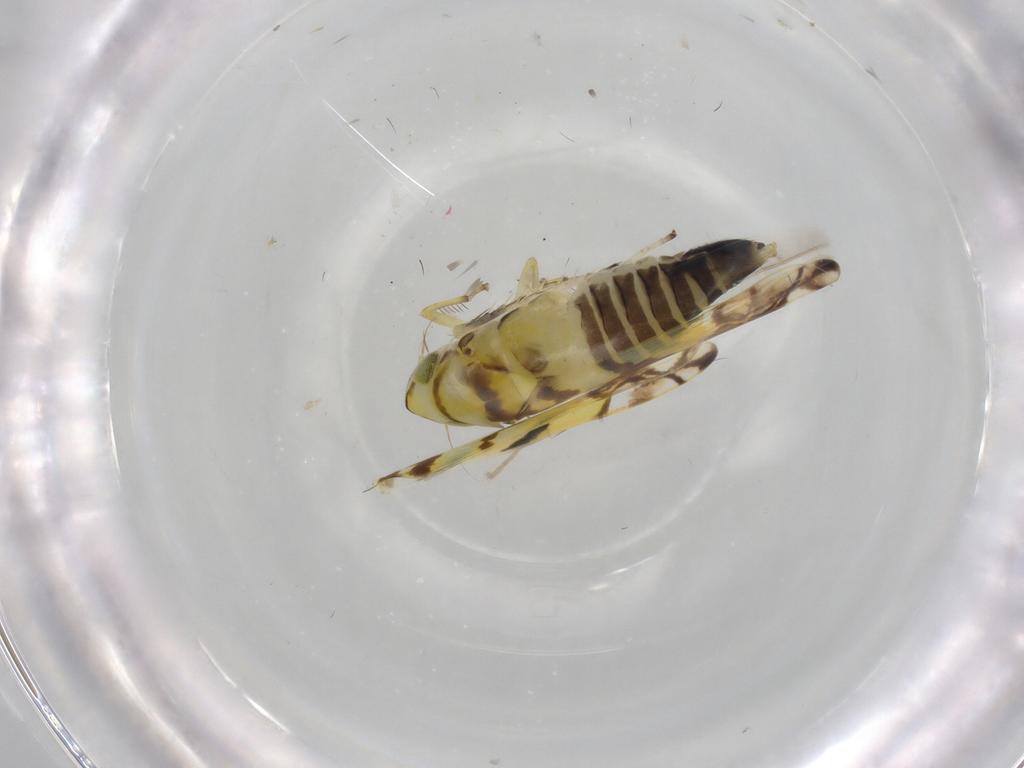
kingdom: Animalia
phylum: Arthropoda
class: Insecta
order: Hemiptera
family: Cicadellidae
